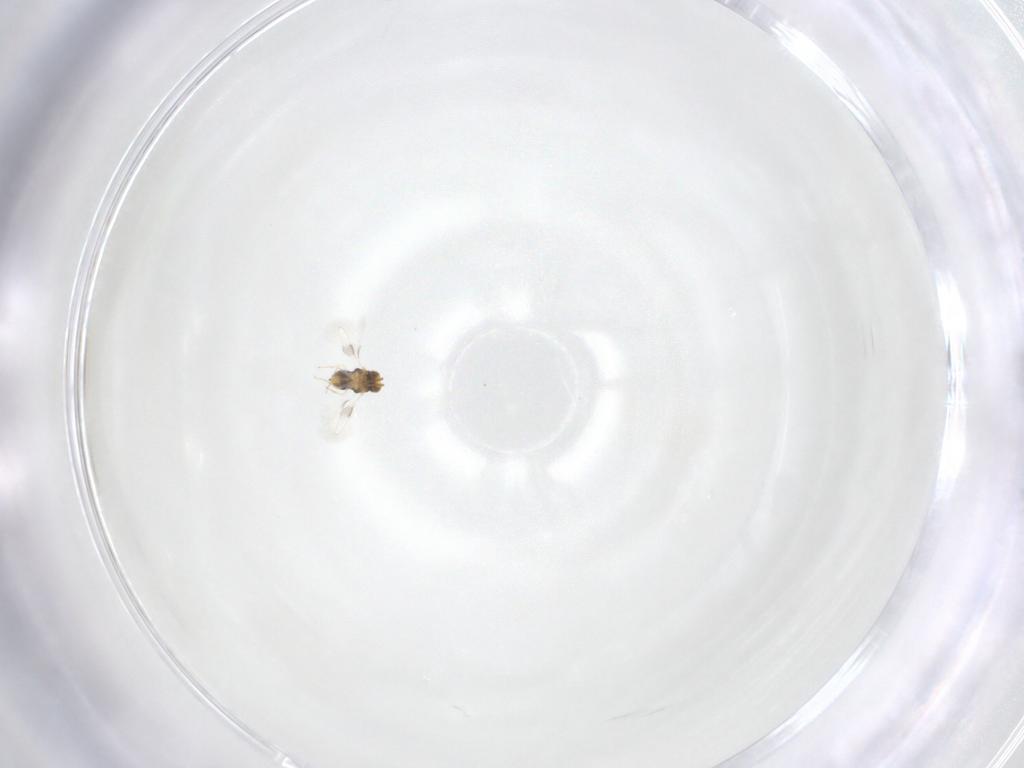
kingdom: Animalia
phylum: Arthropoda
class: Insecta
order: Hymenoptera
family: Aphelinidae
